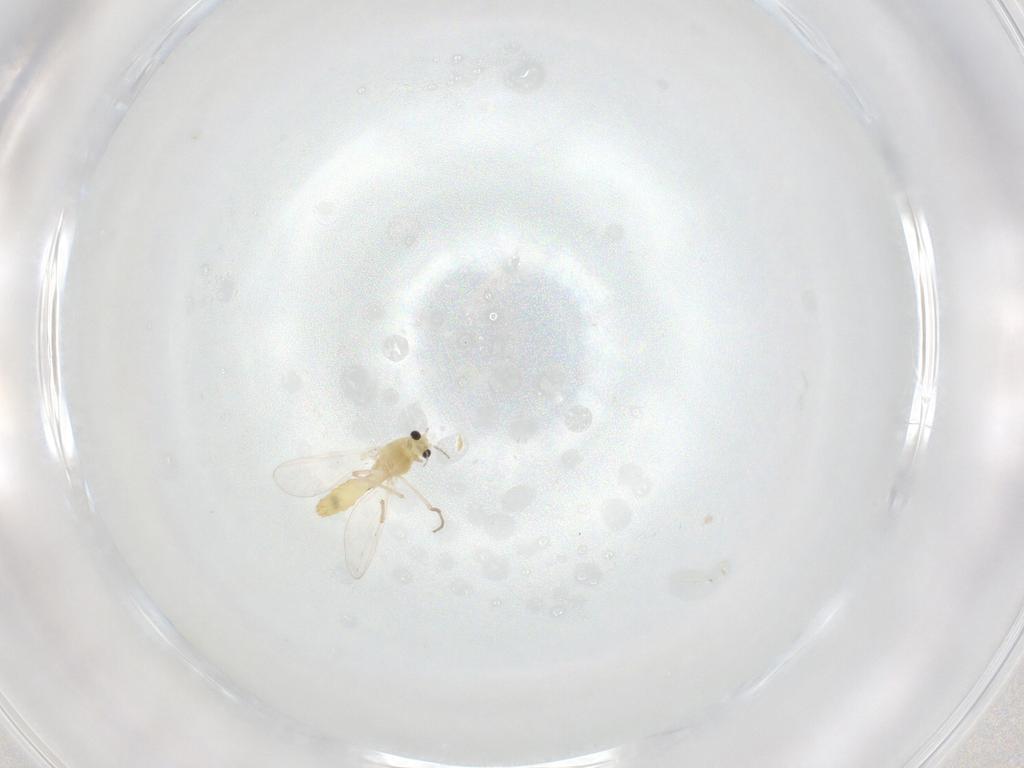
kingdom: Animalia
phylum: Arthropoda
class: Insecta
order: Diptera
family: Chironomidae
